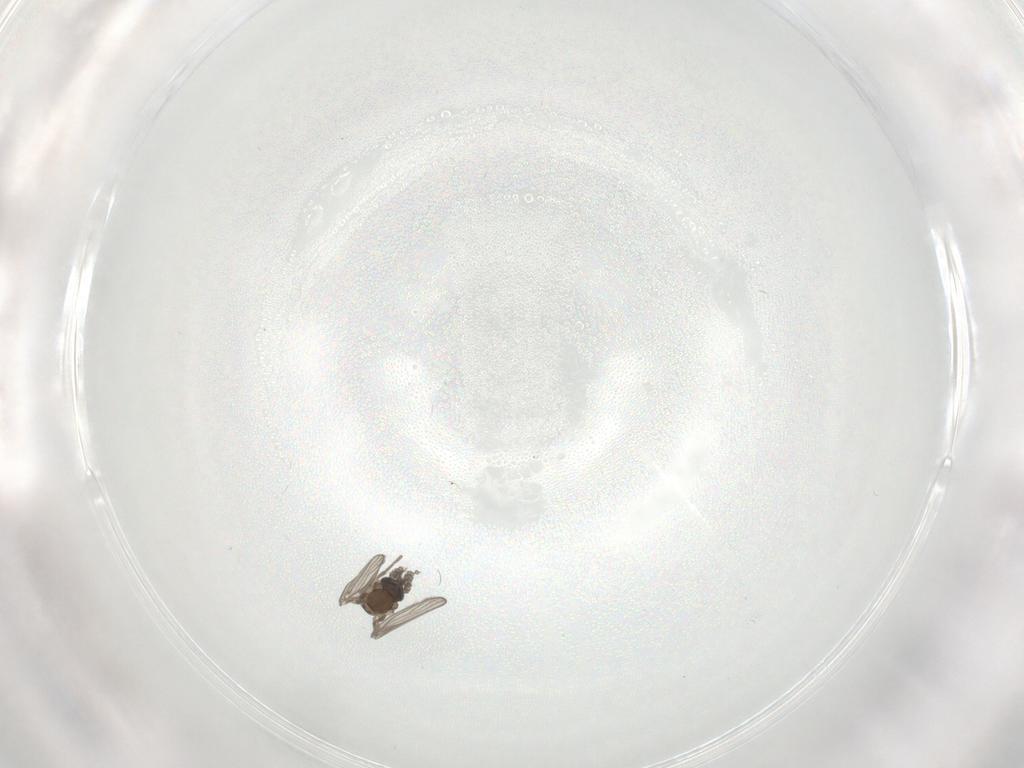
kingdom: Animalia
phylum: Arthropoda
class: Insecta
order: Diptera
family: Psychodidae
